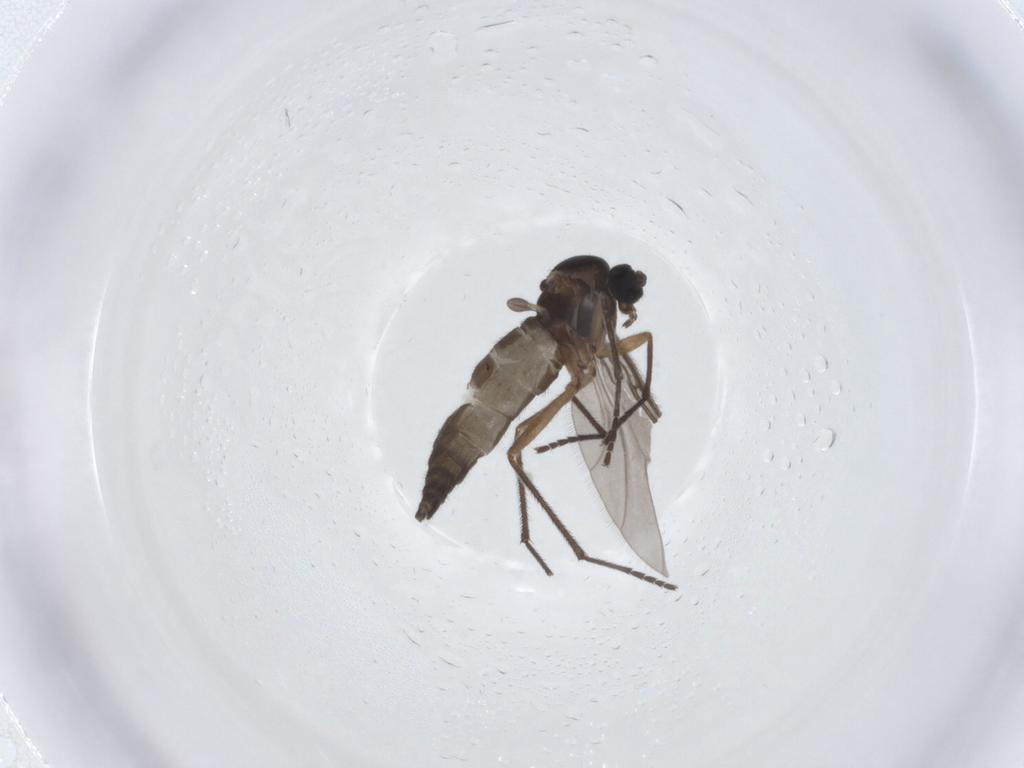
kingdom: Animalia
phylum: Arthropoda
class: Insecta
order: Diptera
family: Sciaridae
